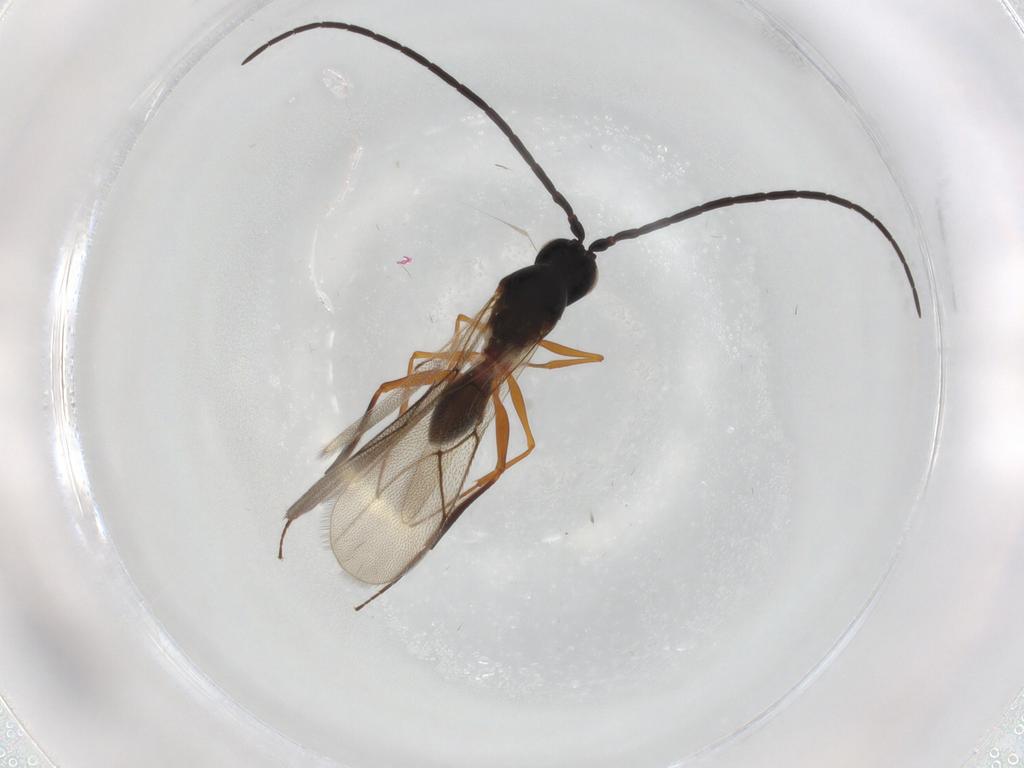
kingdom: Animalia
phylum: Arthropoda
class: Insecta
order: Hymenoptera
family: Figitidae
